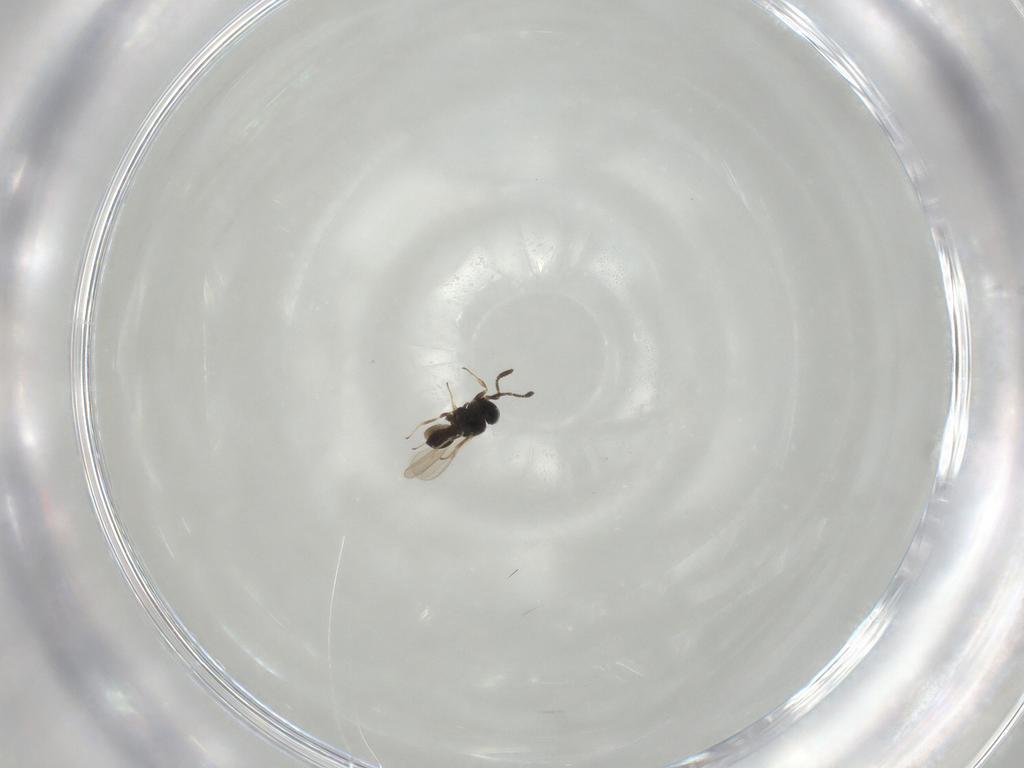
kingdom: Animalia
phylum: Arthropoda
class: Insecta
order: Hymenoptera
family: Scelionidae
